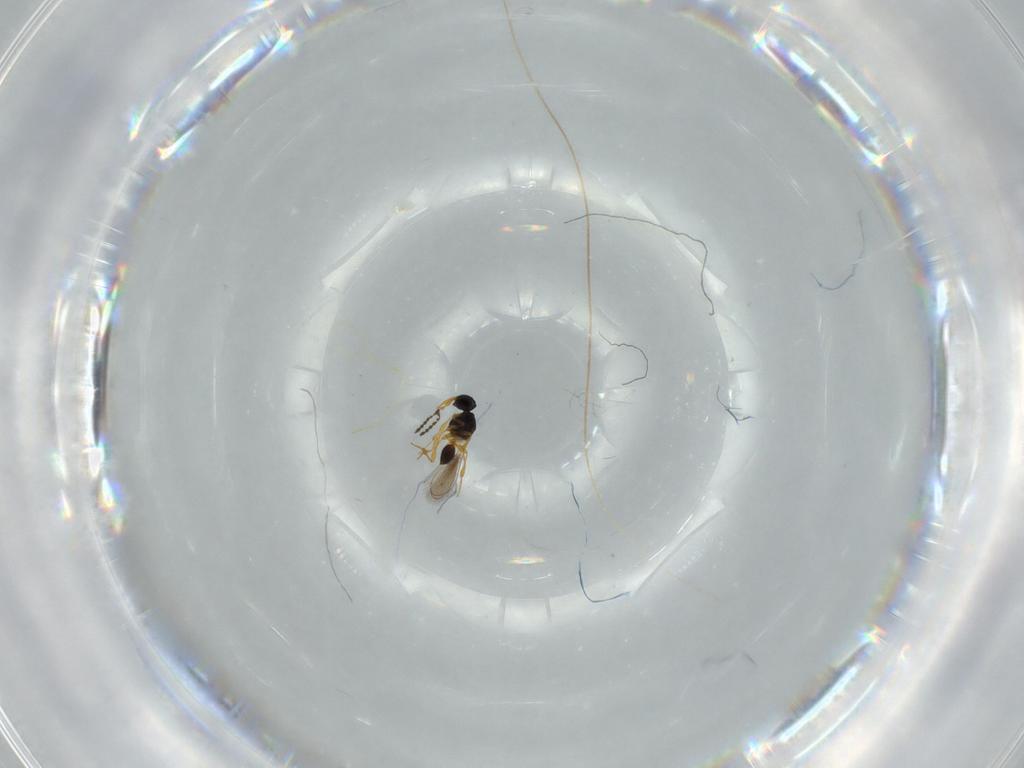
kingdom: Animalia
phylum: Arthropoda
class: Insecta
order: Hymenoptera
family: Platygastridae
